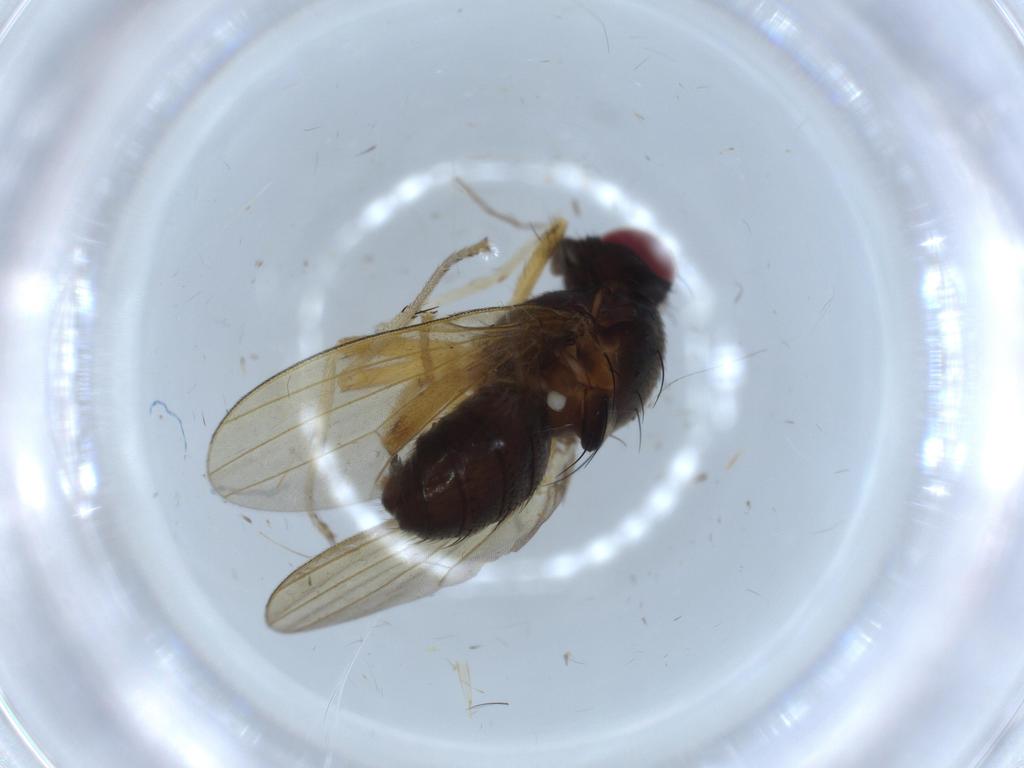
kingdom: Animalia
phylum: Arthropoda
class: Insecta
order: Diptera
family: Sciaridae
